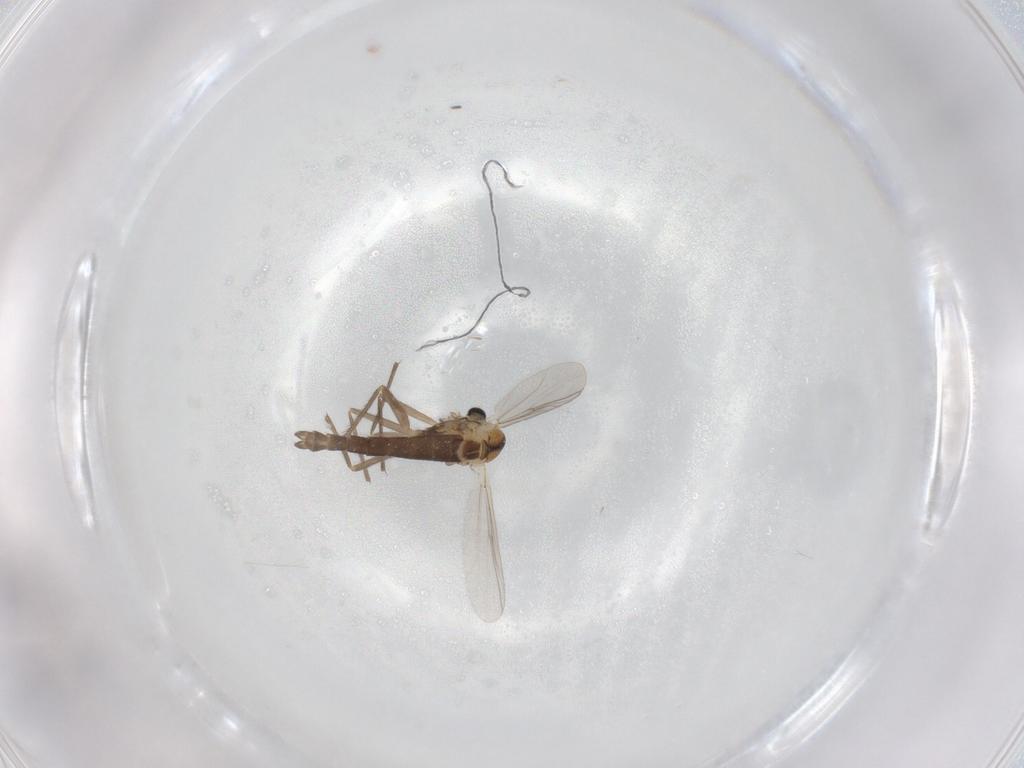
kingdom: Animalia
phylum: Arthropoda
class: Insecta
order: Diptera
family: Chironomidae
